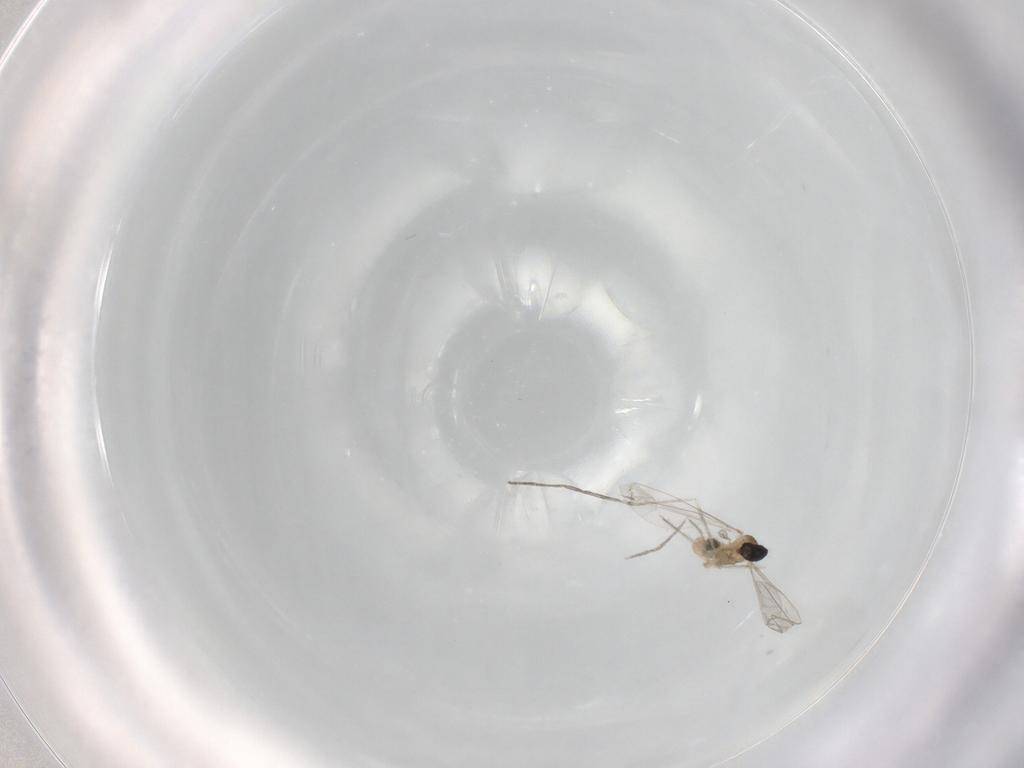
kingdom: Animalia
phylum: Arthropoda
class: Insecta
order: Diptera
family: Cecidomyiidae
